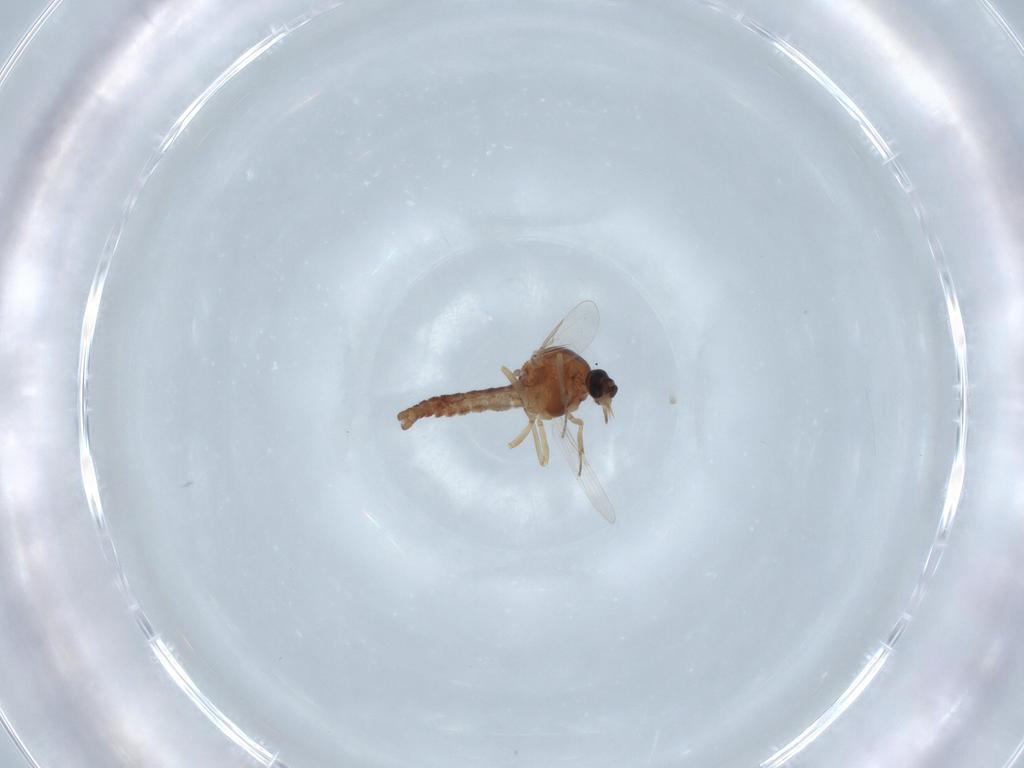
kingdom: Animalia
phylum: Arthropoda
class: Insecta
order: Diptera
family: Ceratopogonidae
